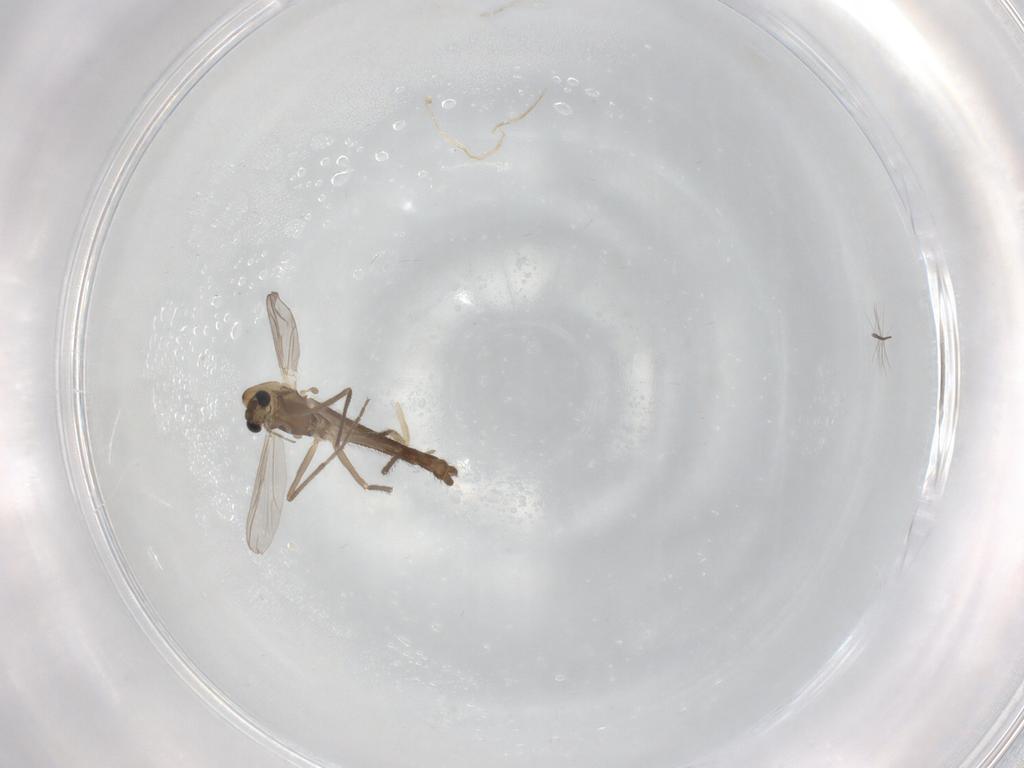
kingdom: Animalia
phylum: Arthropoda
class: Insecta
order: Diptera
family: Chironomidae
